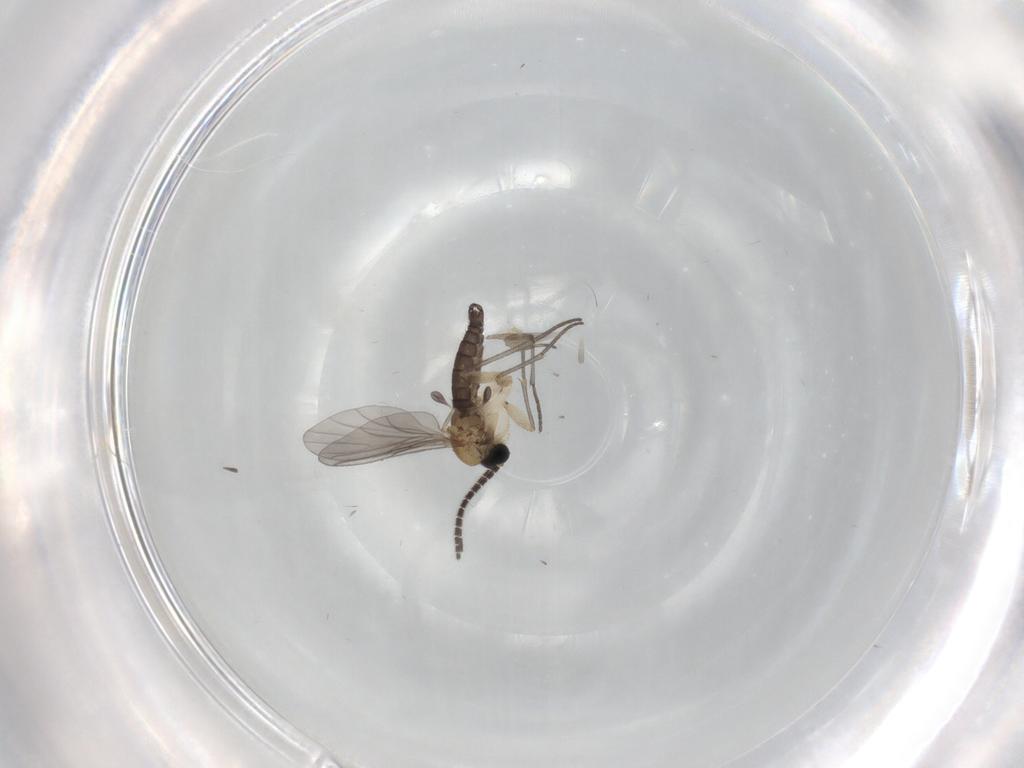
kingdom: Animalia
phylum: Arthropoda
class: Insecta
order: Diptera
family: Sciaridae
